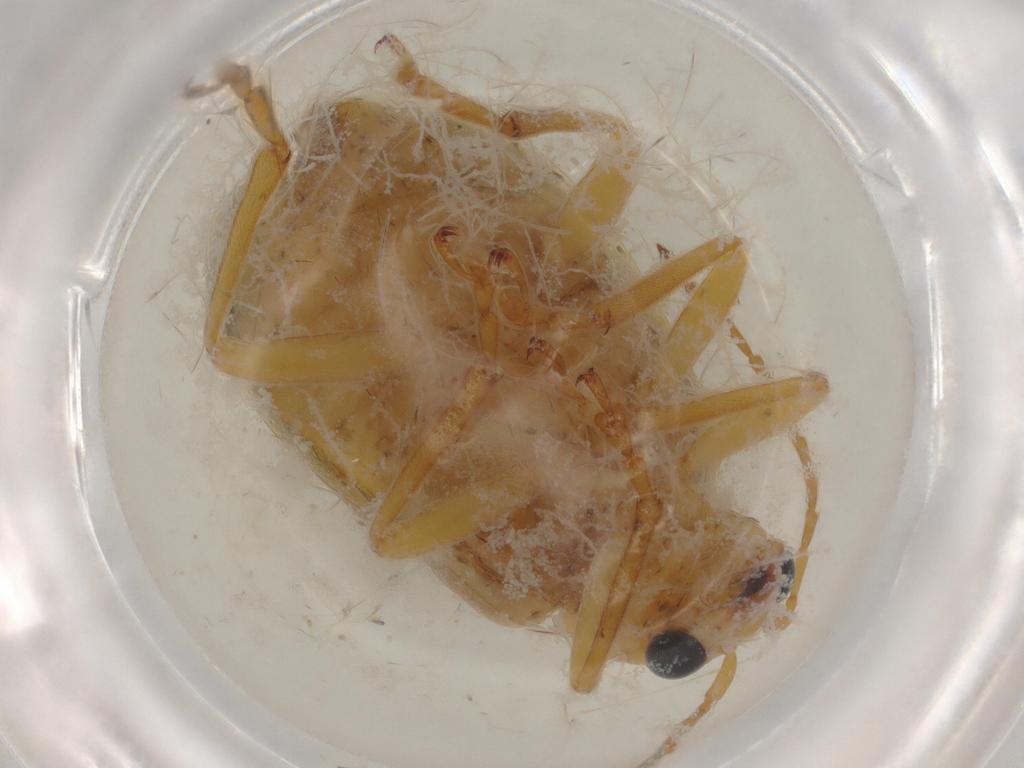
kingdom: Animalia
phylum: Arthropoda
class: Insecta
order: Coleoptera
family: Chrysomelidae
